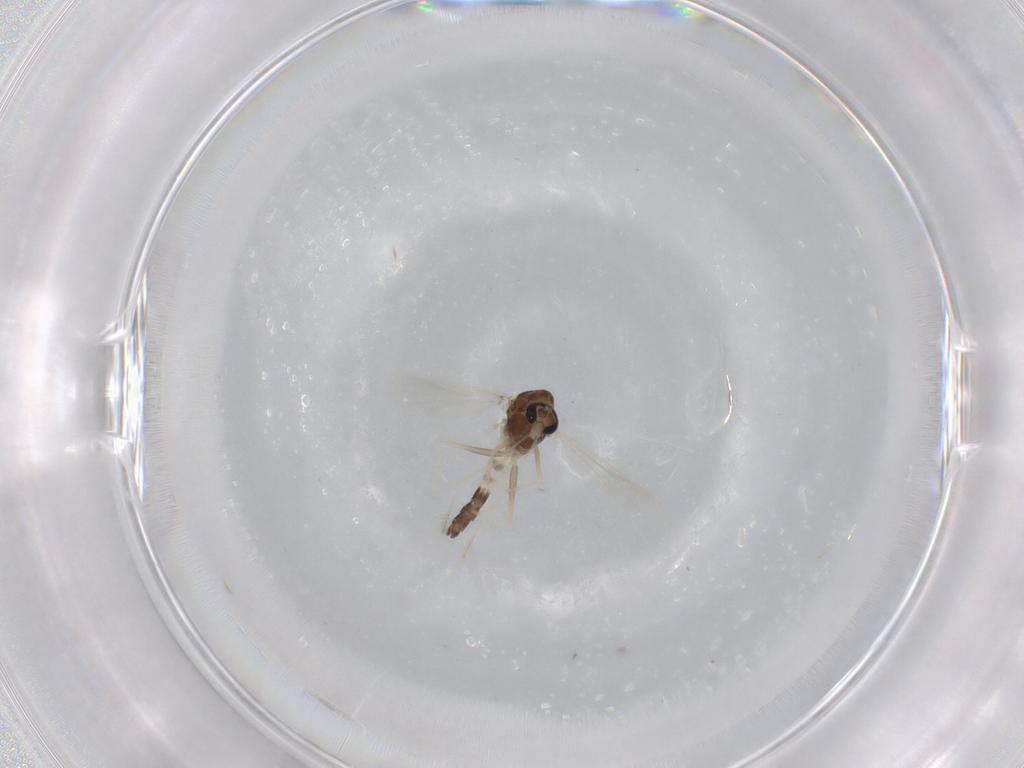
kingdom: Animalia
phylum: Arthropoda
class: Insecta
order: Diptera
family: Chironomidae
